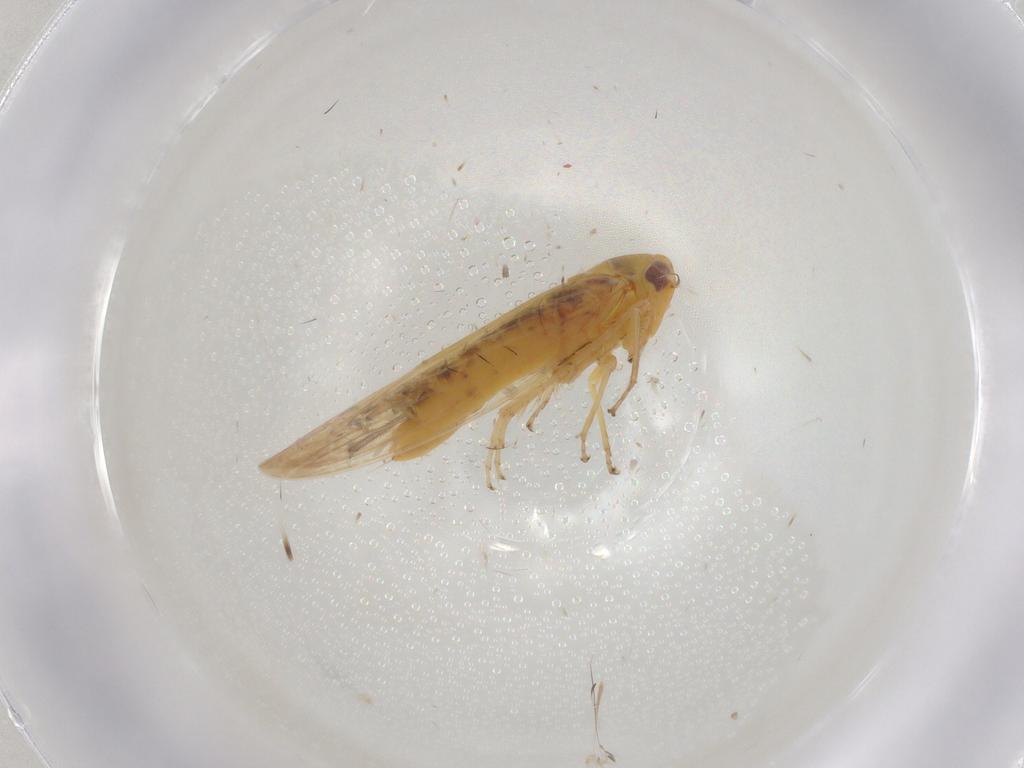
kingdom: Animalia
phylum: Arthropoda
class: Insecta
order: Hemiptera
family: Cicadellidae
